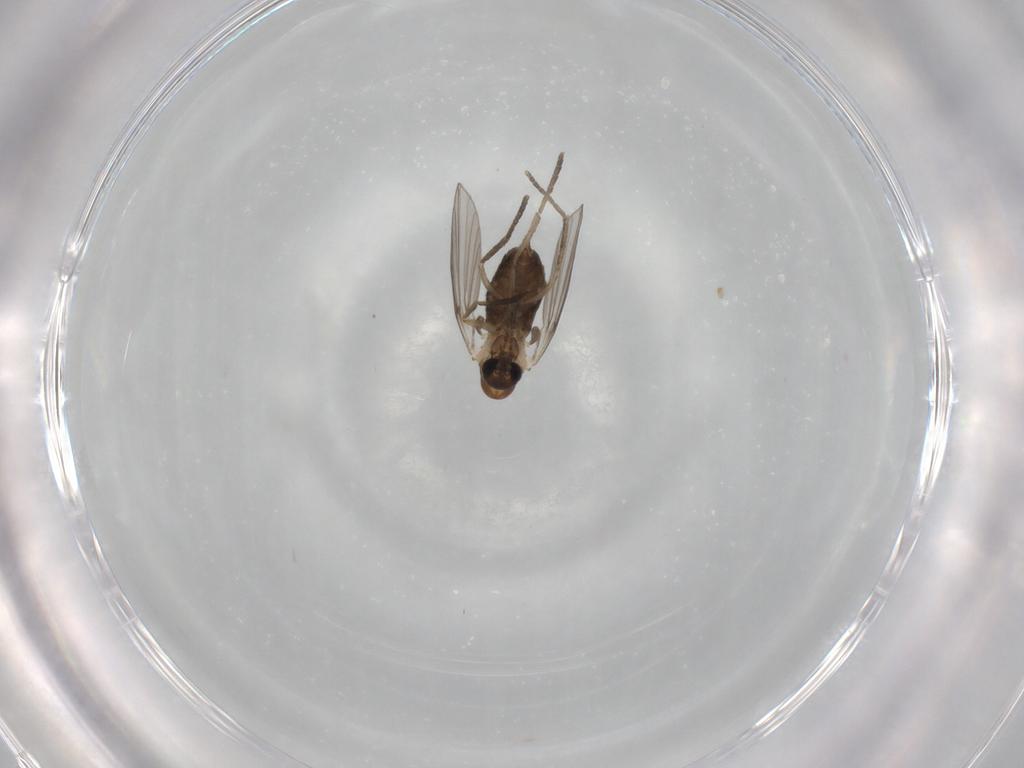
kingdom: Animalia
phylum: Arthropoda
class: Insecta
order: Diptera
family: Psychodidae
